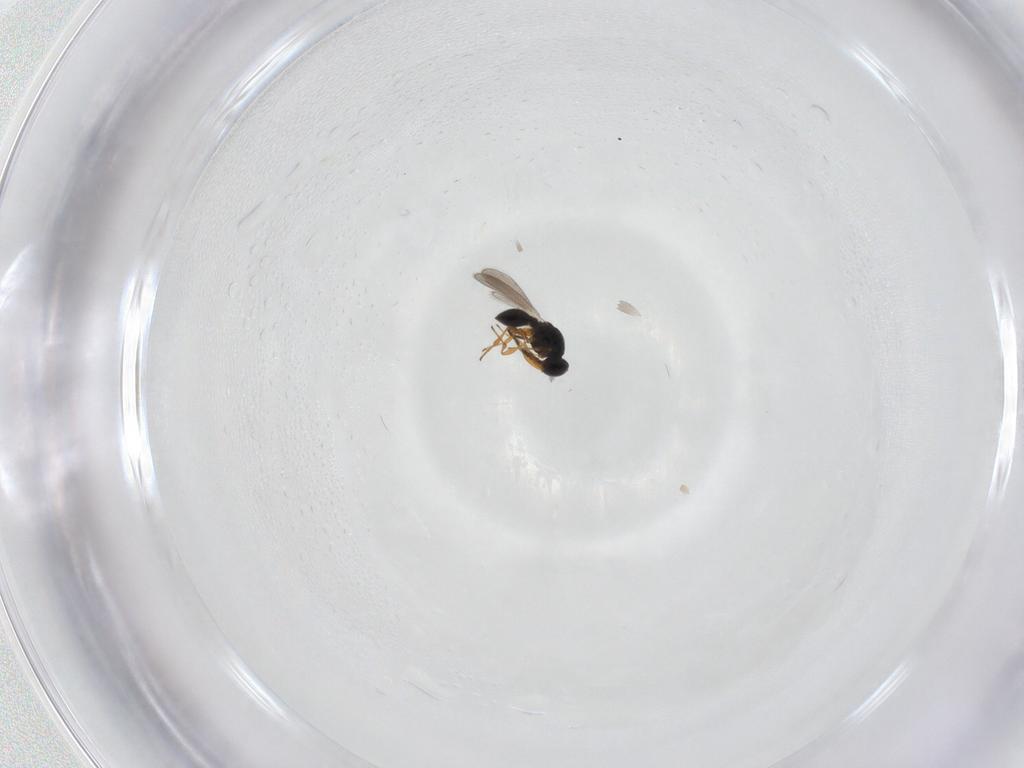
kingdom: Animalia
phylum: Arthropoda
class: Insecta
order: Hymenoptera
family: Platygastridae
